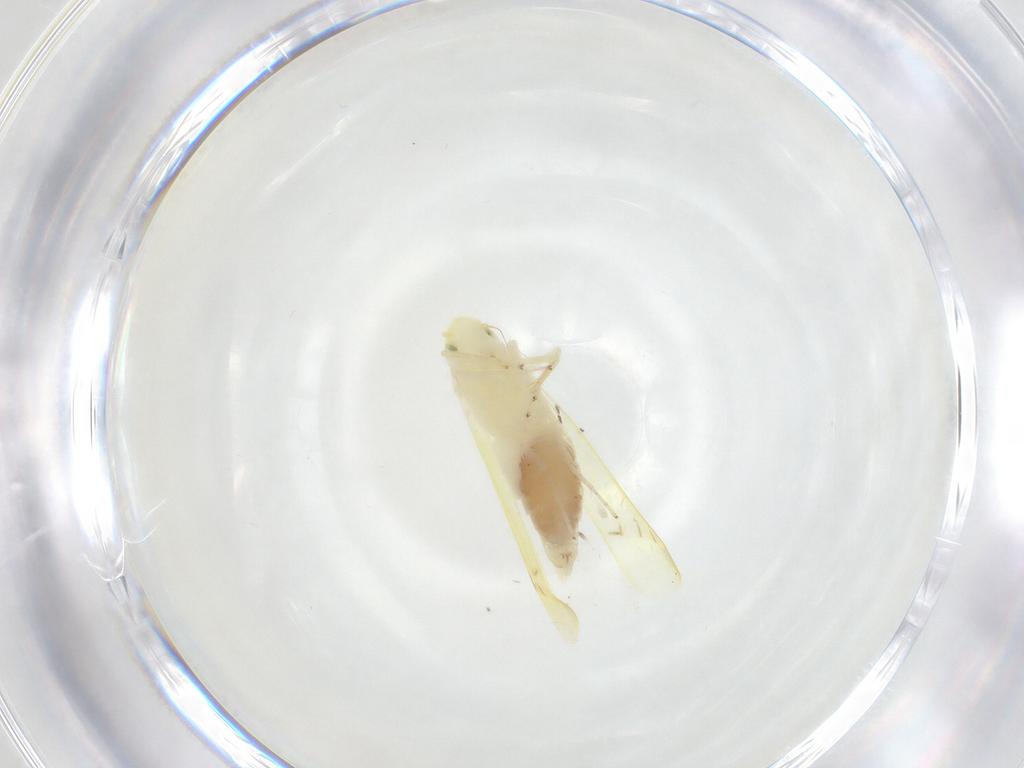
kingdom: Animalia
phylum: Arthropoda
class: Insecta
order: Hemiptera
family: Cicadellidae
